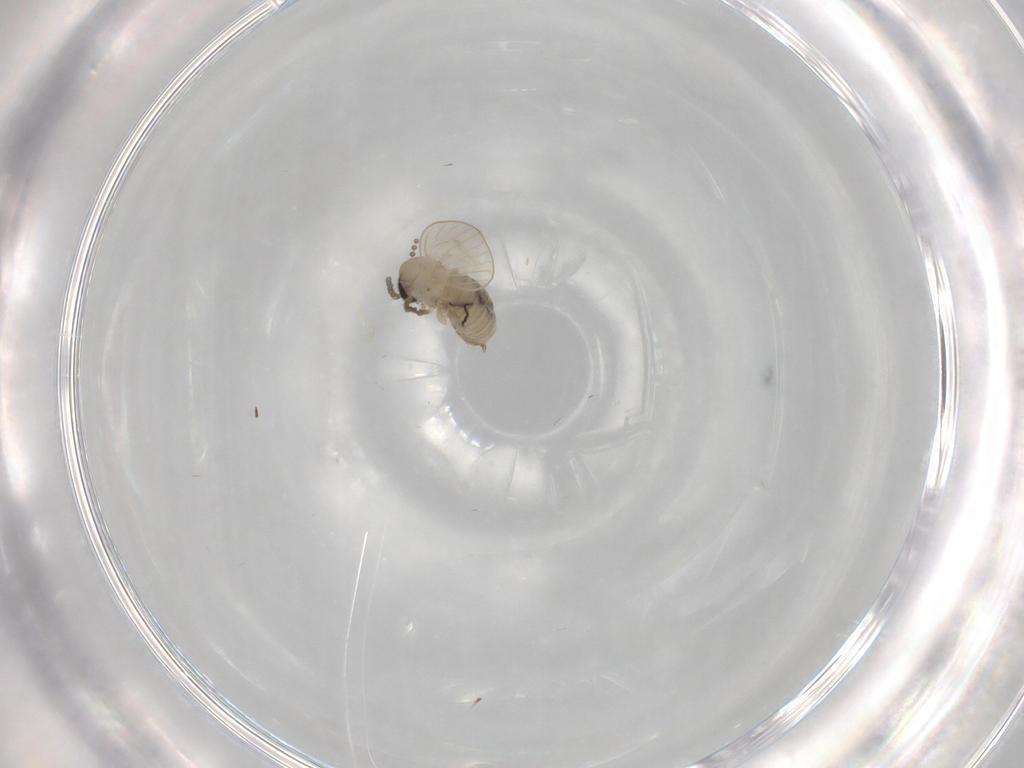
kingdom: Animalia
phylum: Arthropoda
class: Insecta
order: Diptera
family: Psychodidae
